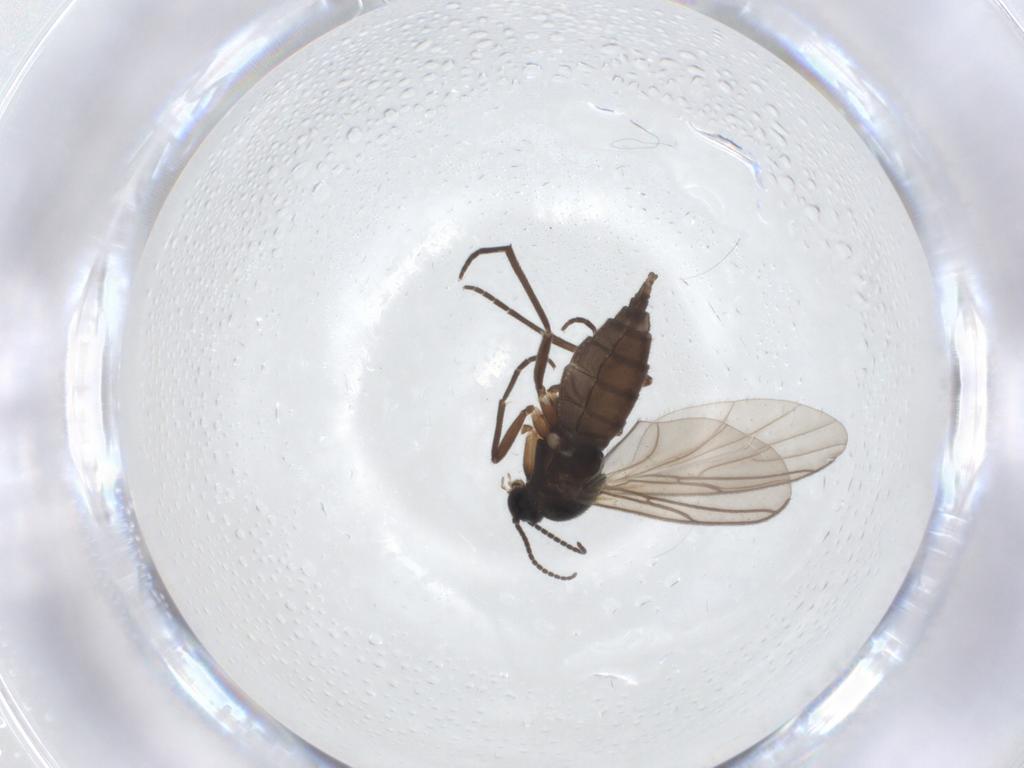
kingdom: Animalia
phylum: Arthropoda
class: Insecta
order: Diptera
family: Sciaridae
